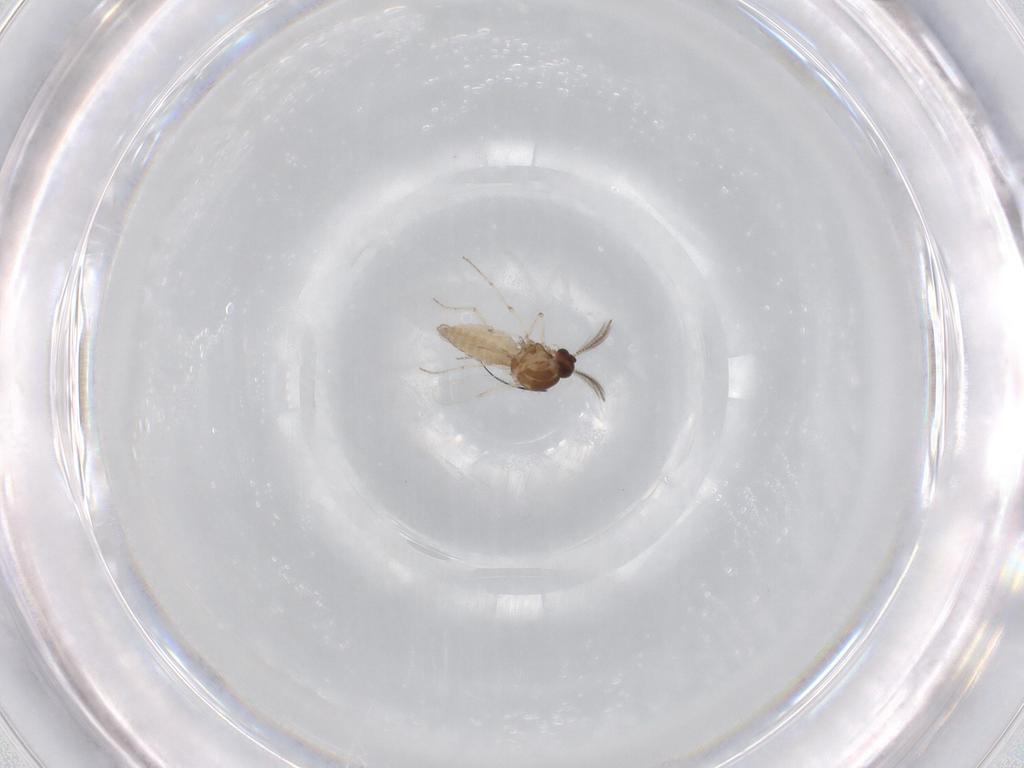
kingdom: Animalia
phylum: Arthropoda
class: Insecta
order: Diptera
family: Ceratopogonidae
